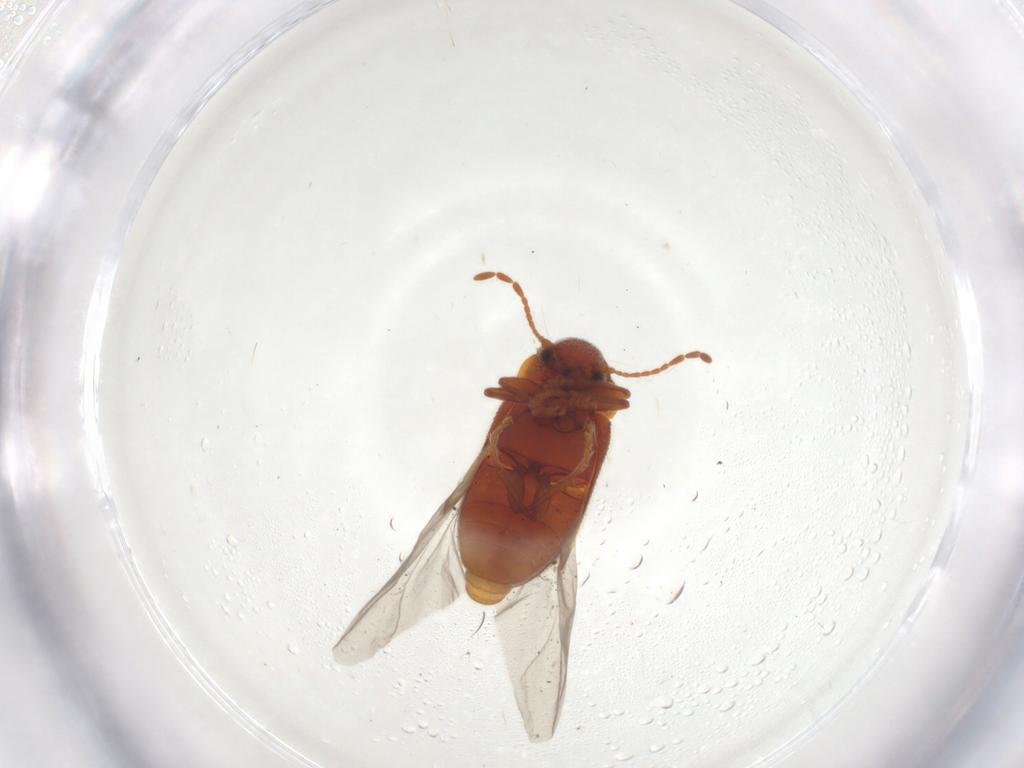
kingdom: Animalia
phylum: Arthropoda
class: Insecta
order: Coleoptera
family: Ptinidae
